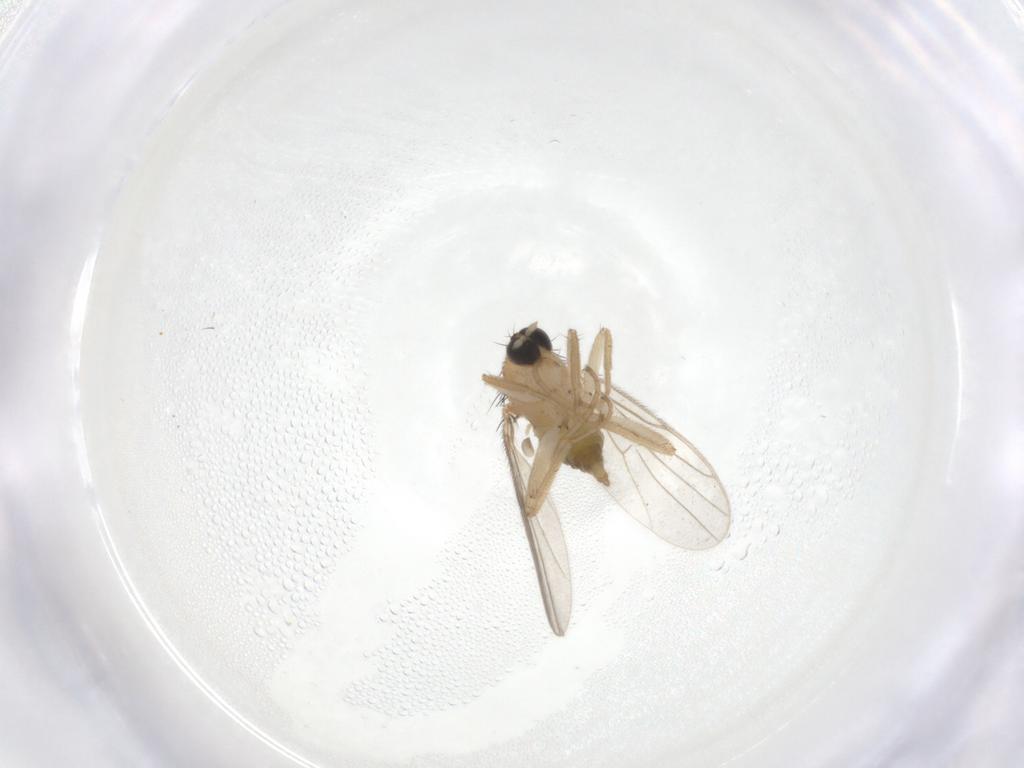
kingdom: Animalia
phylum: Arthropoda
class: Insecta
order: Diptera
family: Hybotidae
